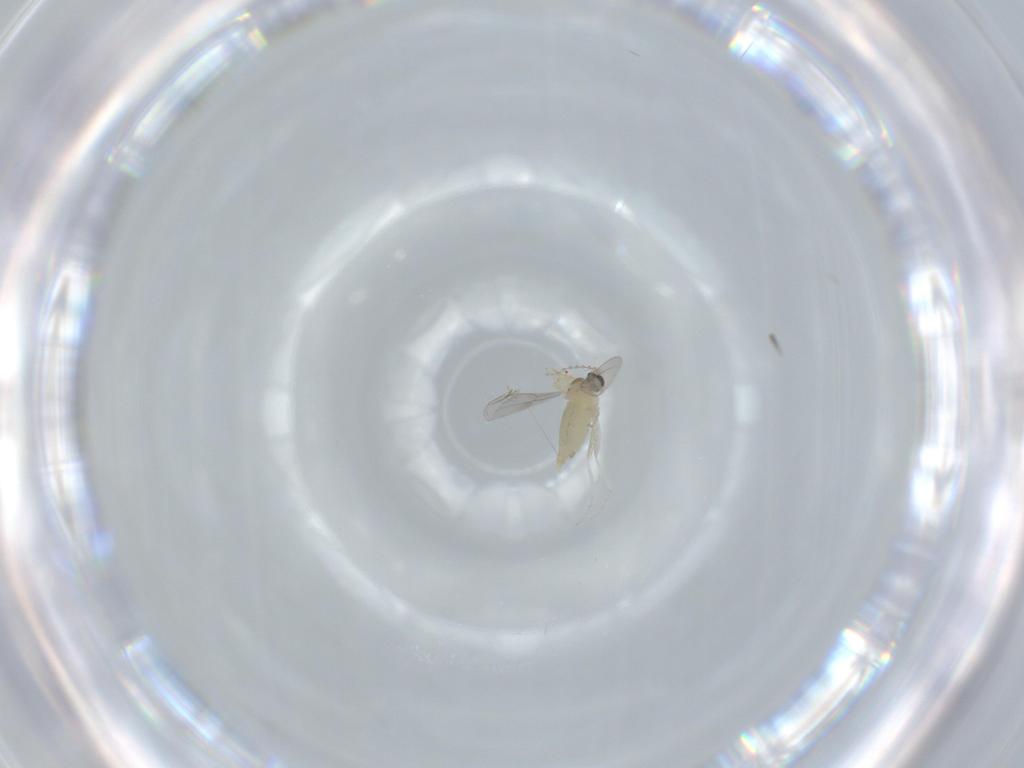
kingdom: Animalia
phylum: Arthropoda
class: Insecta
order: Diptera
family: Cecidomyiidae
